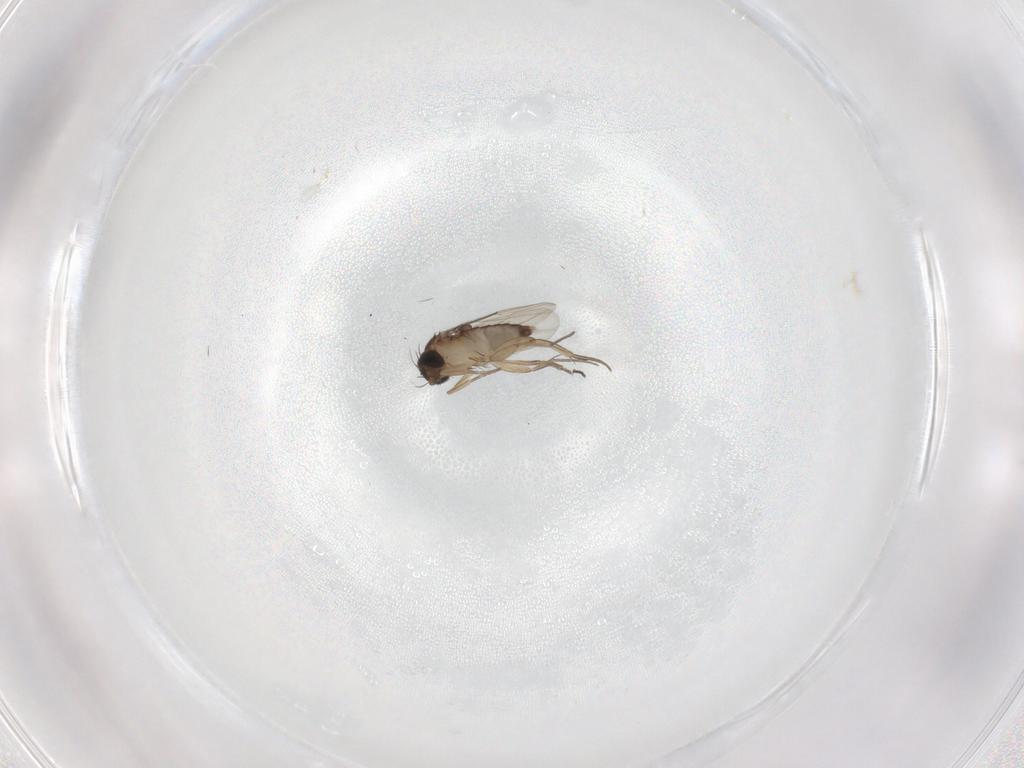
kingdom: Animalia
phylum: Arthropoda
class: Insecta
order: Diptera
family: Phoridae
